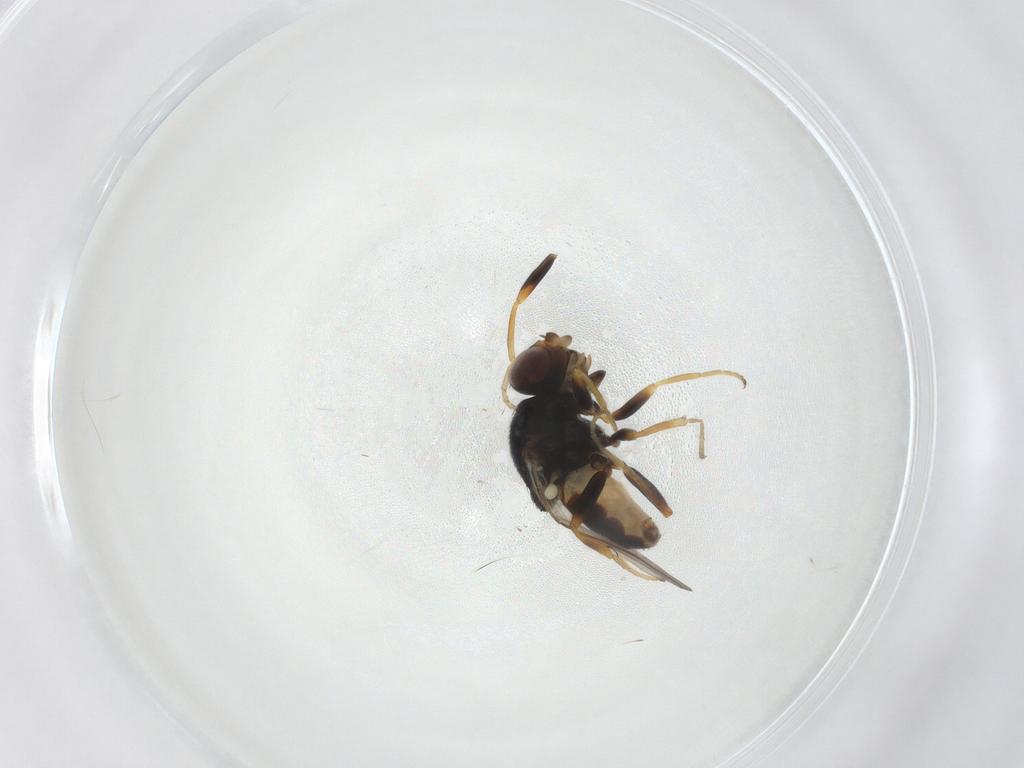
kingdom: Animalia
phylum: Arthropoda
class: Insecta
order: Diptera
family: Chloropidae
